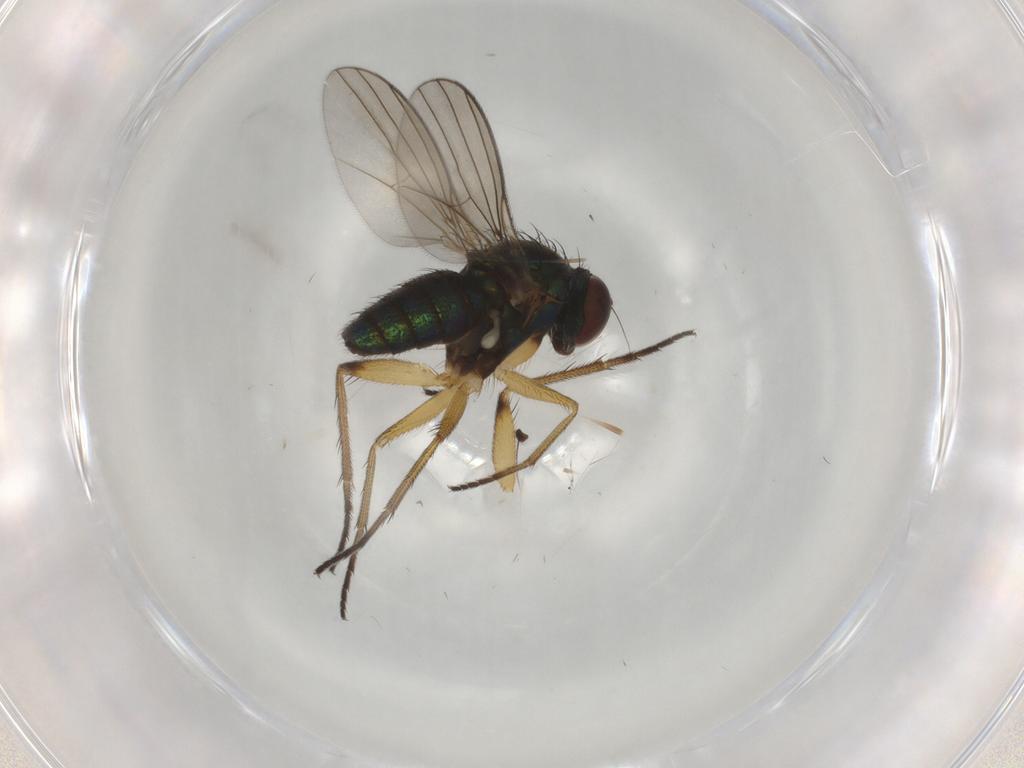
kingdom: Animalia
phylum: Arthropoda
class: Insecta
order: Diptera
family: Dolichopodidae
